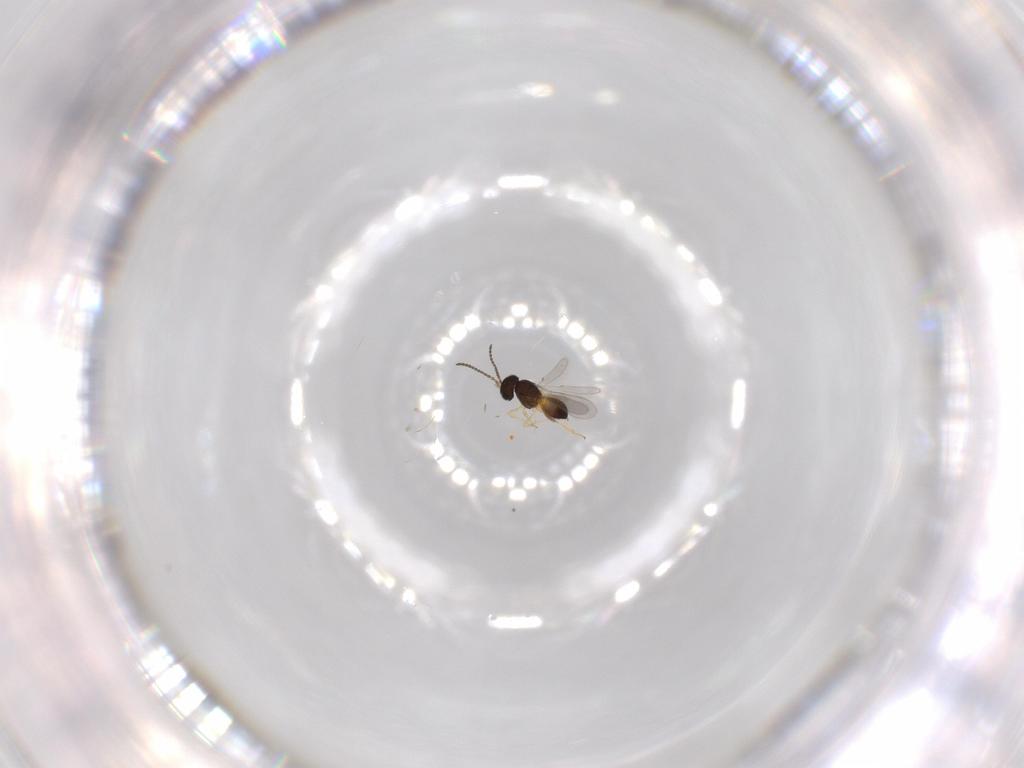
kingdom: Animalia
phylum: Arthropoda
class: Insecta
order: Hymenoptera
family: Scelionidae
